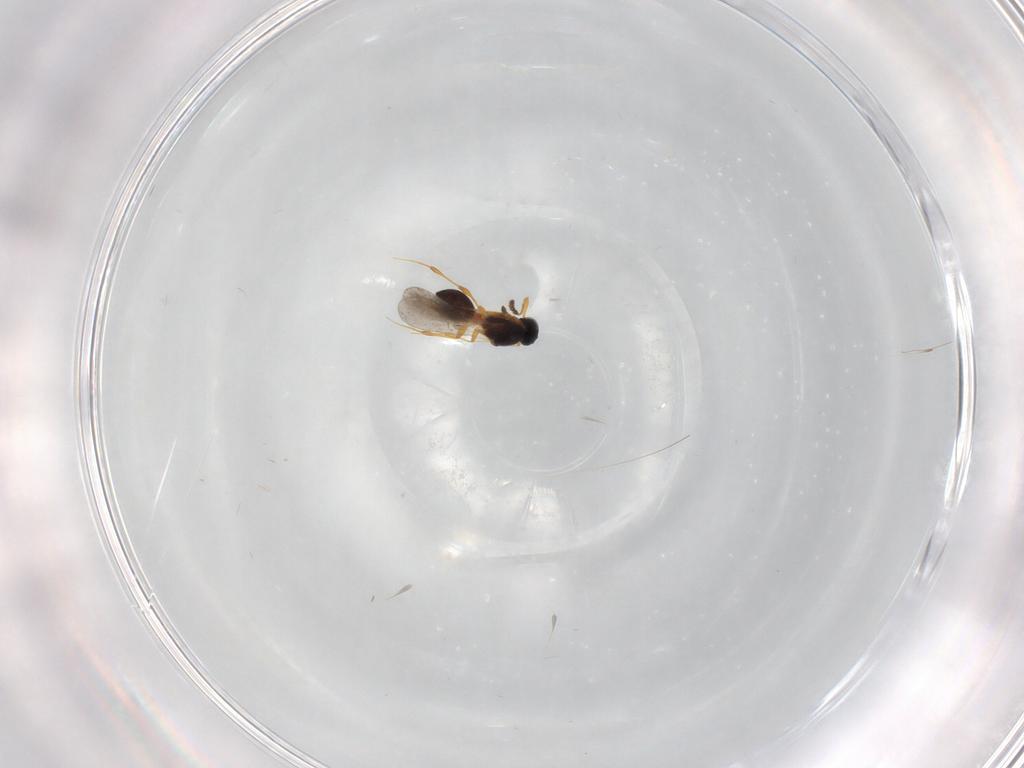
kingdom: Animalia
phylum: Arthropoda
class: Insecta
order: Hymenoptera
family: Platygastridae
